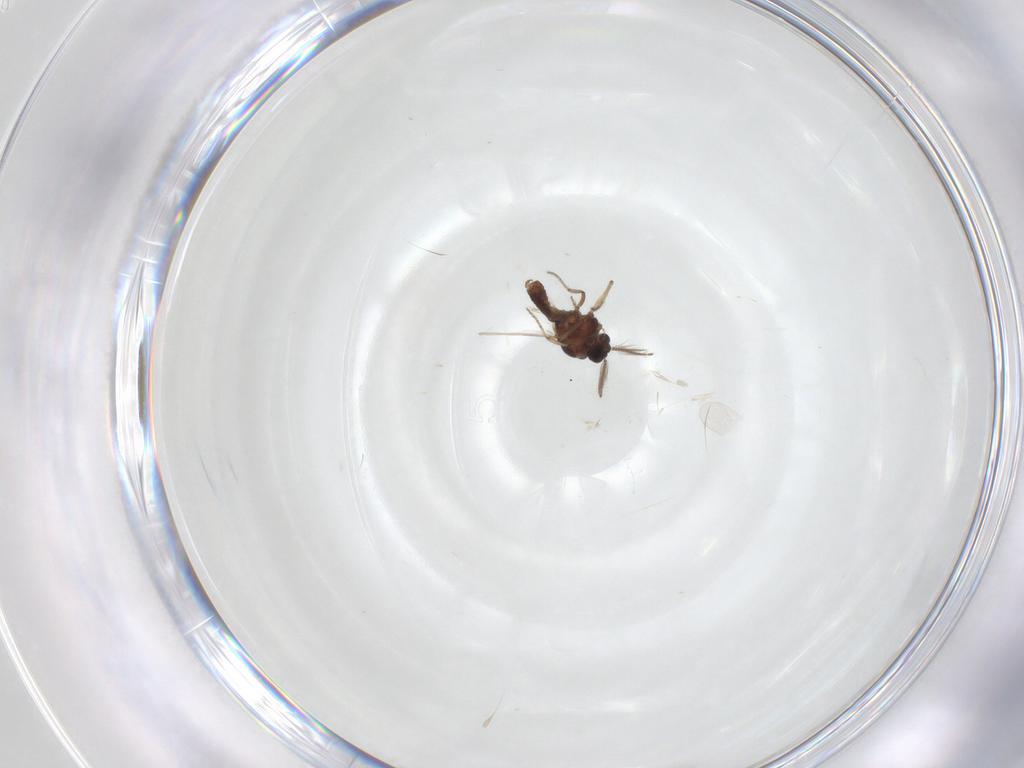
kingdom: Animalia
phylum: Arthropoda
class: Insecta
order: Diptera
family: Ceratopogonidae
